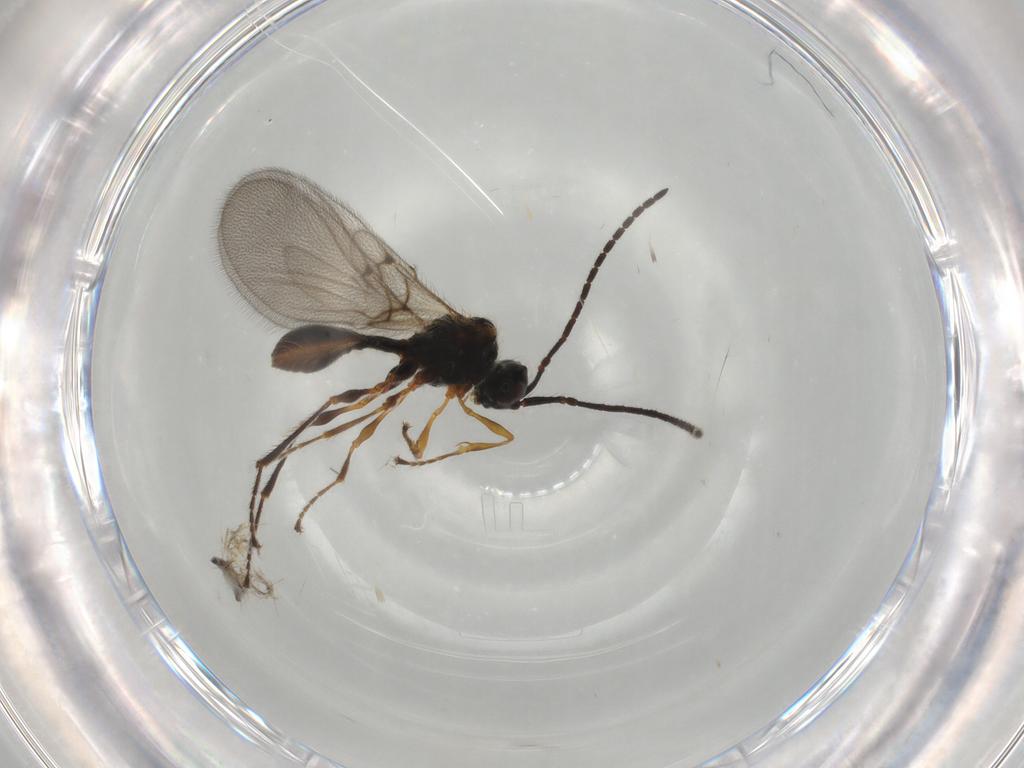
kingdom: Animalia
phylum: Arthropoda
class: Insecta
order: Hymenoptera
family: Diapriidae
